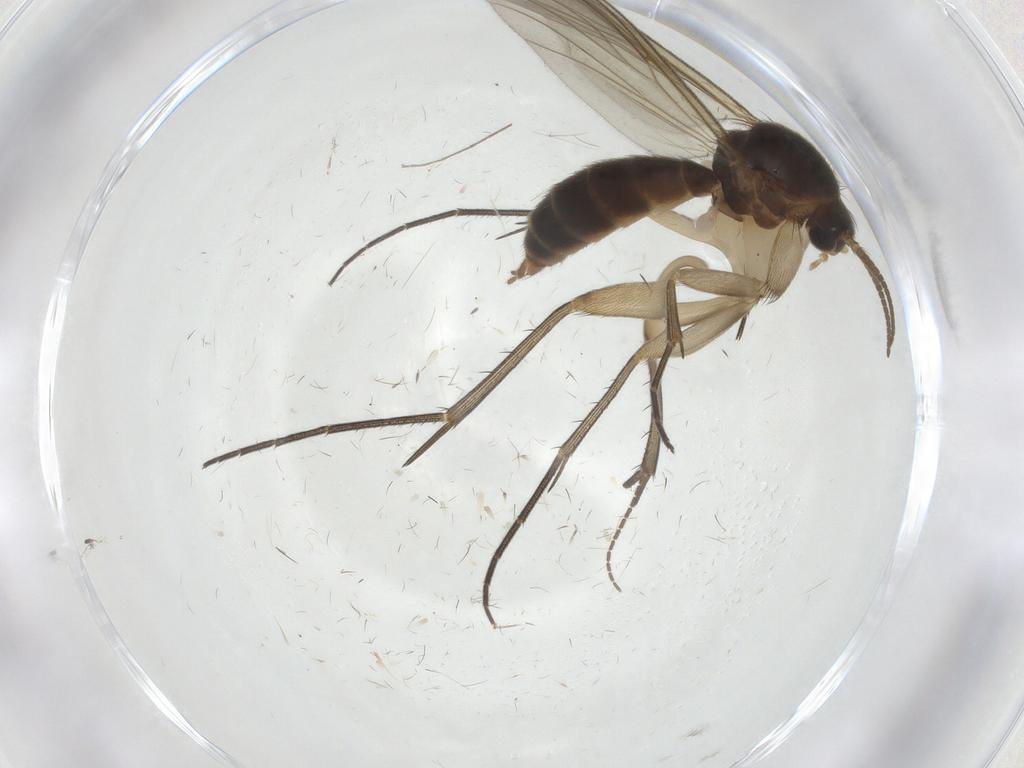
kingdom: Animalia
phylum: Arthropoda
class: Insecta
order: Diptera
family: Sciaridae
